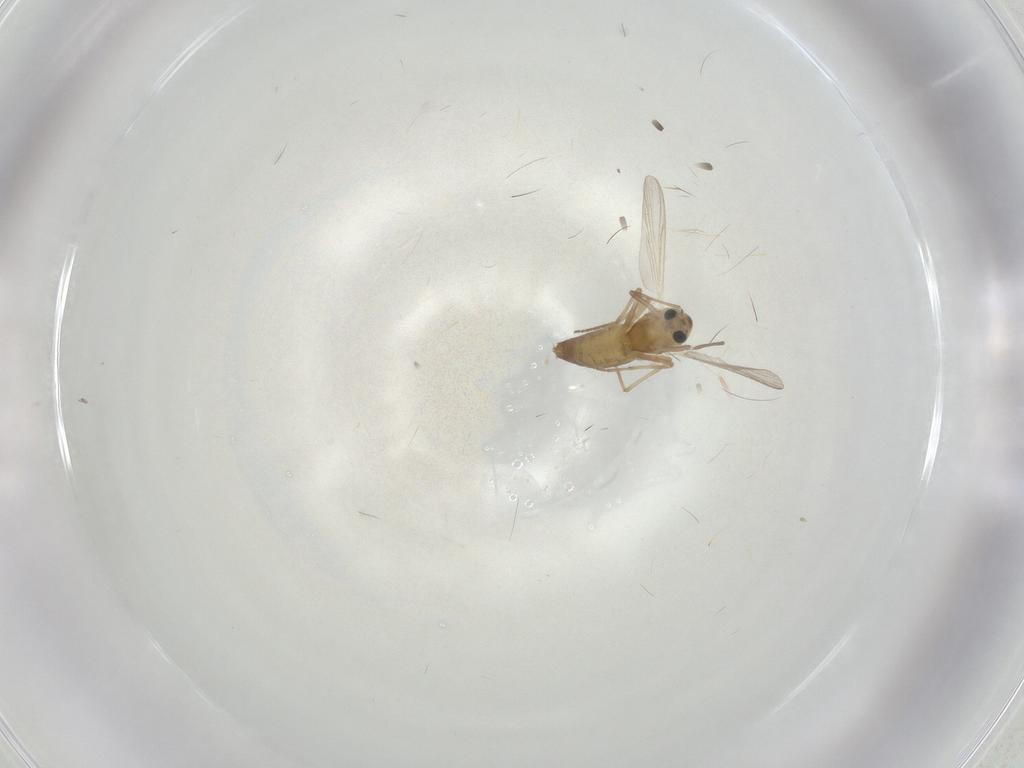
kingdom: Animalia
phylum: Arthropoda
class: Insecta
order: Diptera
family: Chironomidae
